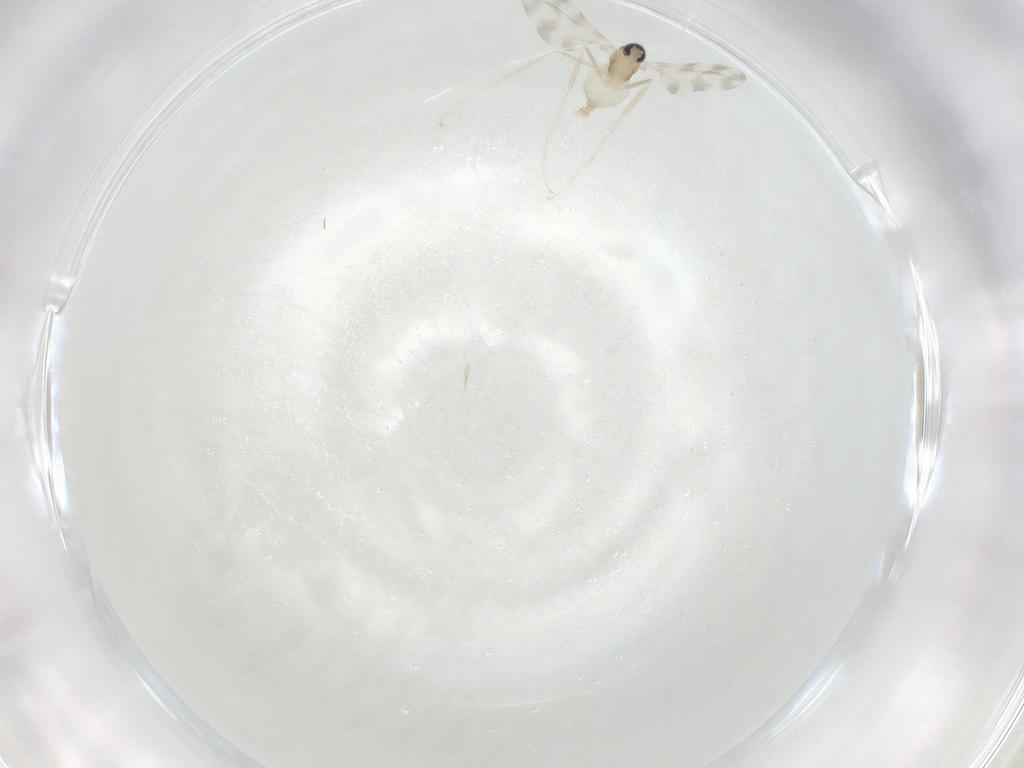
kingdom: Animalia
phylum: Arthropoda
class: Insecta
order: Diptera
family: Cecidomyiidae
